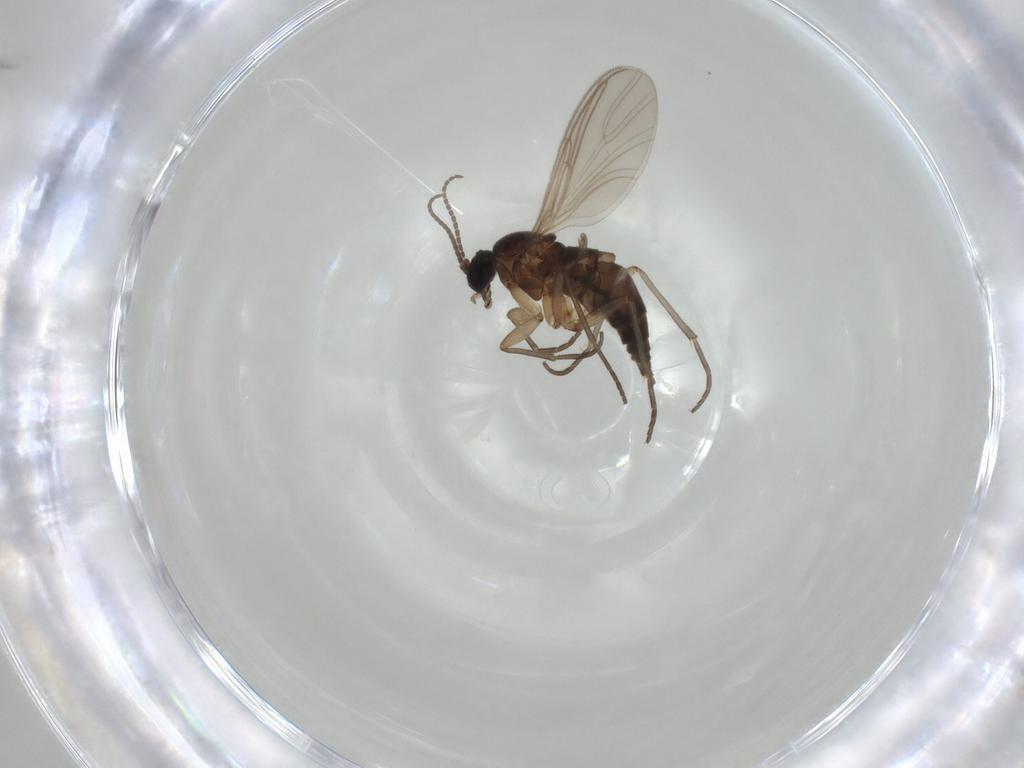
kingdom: Animalia
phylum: Arthropoda
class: Insecta
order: Diptera
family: Sciaridae
